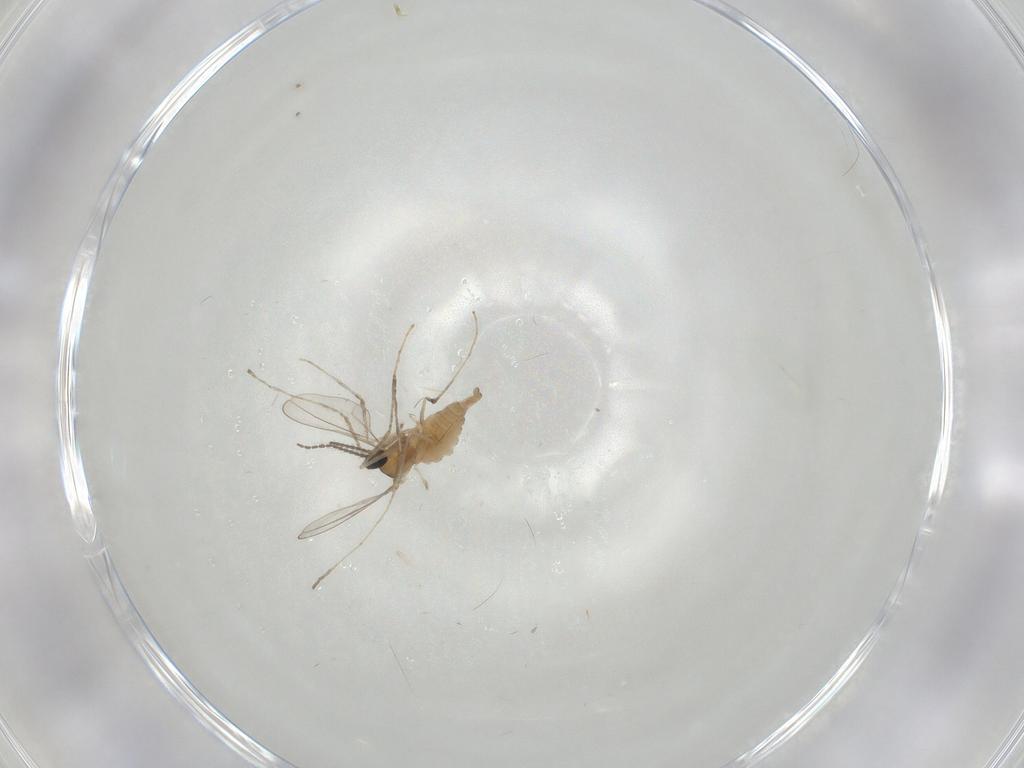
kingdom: Animalia
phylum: Arthropoda
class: Insecta
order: Diptera
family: Cecidomyiidae
